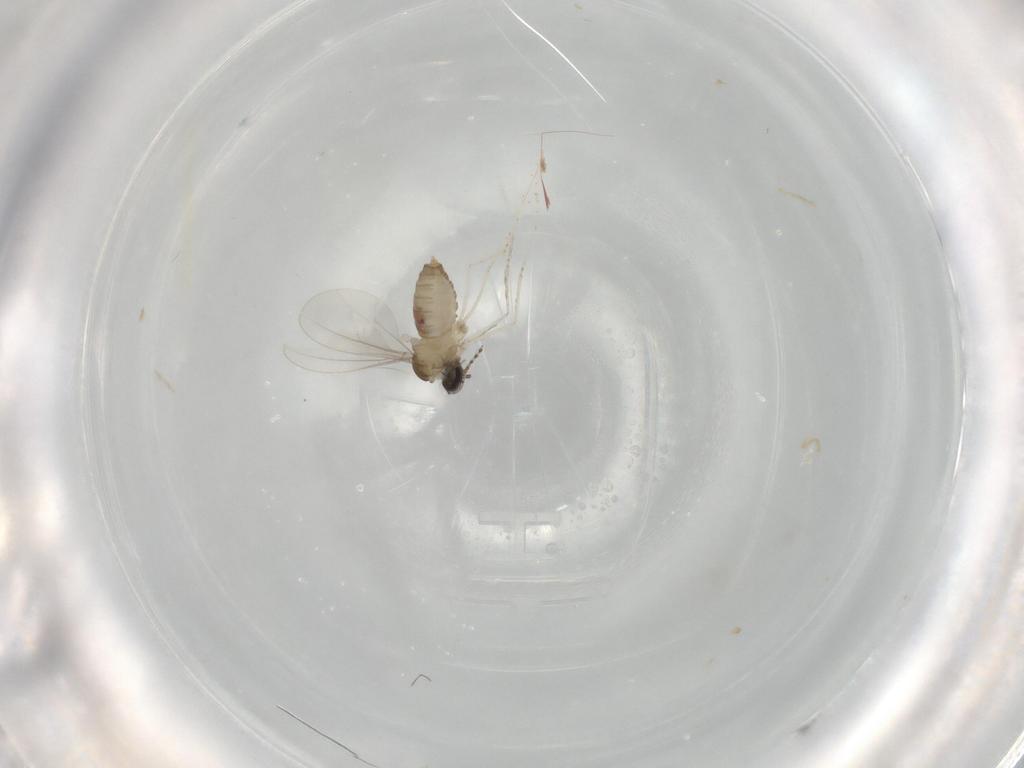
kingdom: Animalia
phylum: Arthropoda
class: Insecta
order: Diptera
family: Cecidomyiidae
